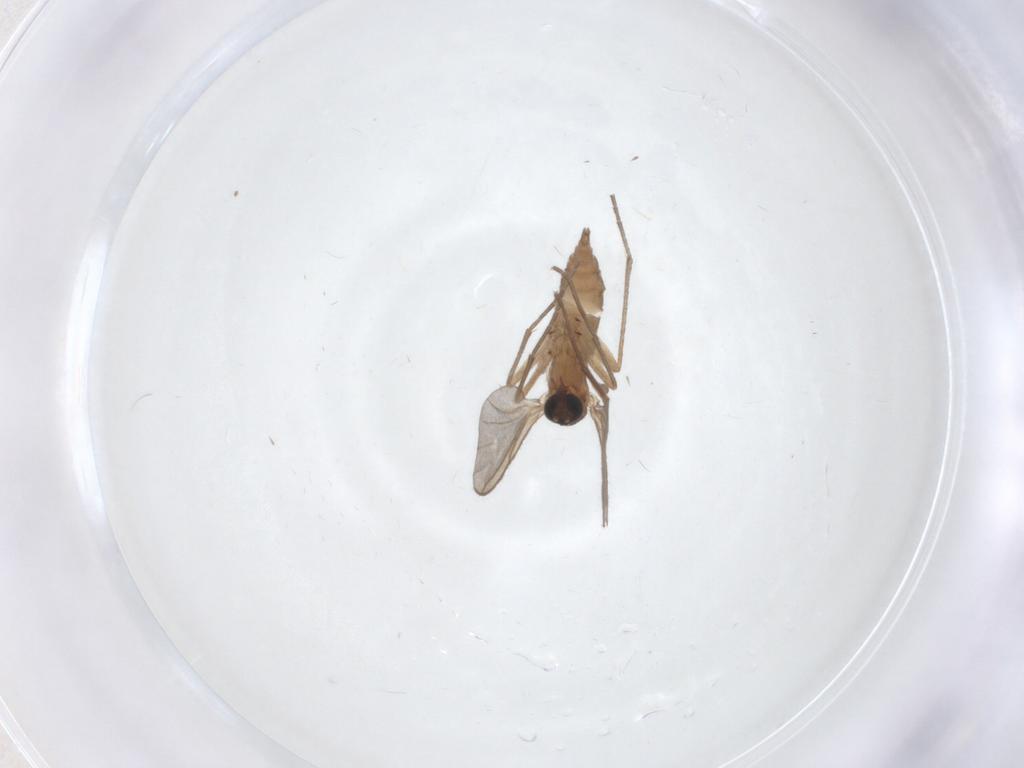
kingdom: Animalia
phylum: Arthropoda
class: Insecta
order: Diptera
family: Sciaridae
